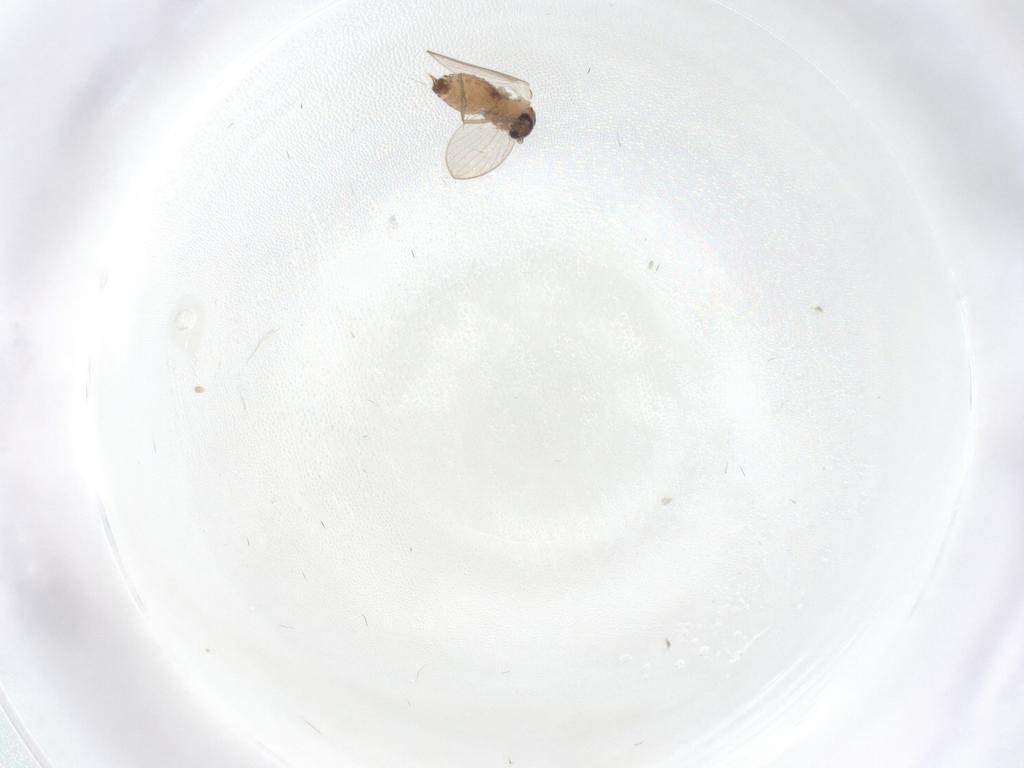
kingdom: Animalia
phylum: Arthropoda
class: Insecta
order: Diptera
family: Psychodidae
